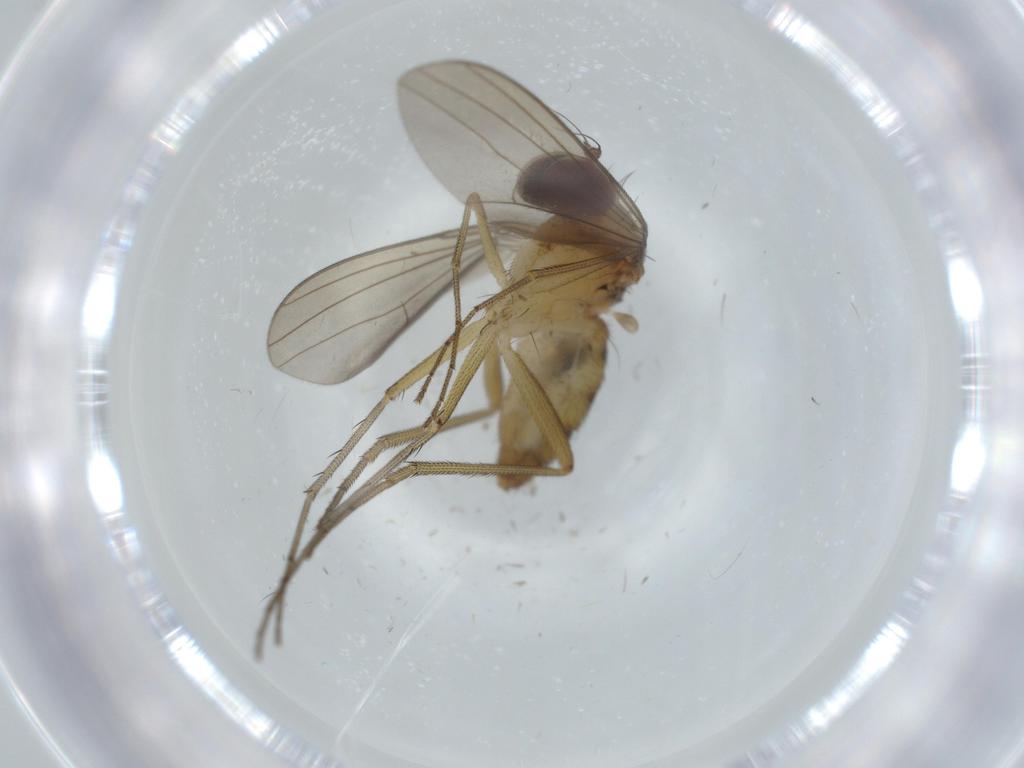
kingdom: Animalia
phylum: Arthropoda
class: Insecta
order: Diptera
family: Dolichopodidae
